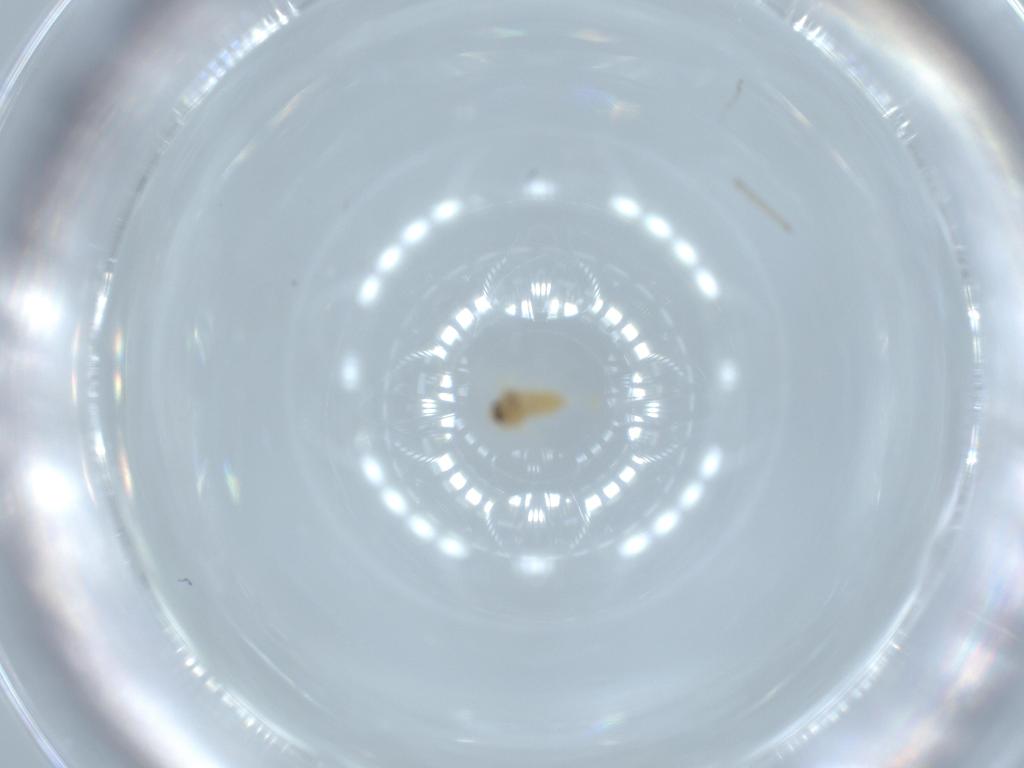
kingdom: Animalia
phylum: Arthropoda
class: Insecta
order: Hemiptera
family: Aleyrodidae
